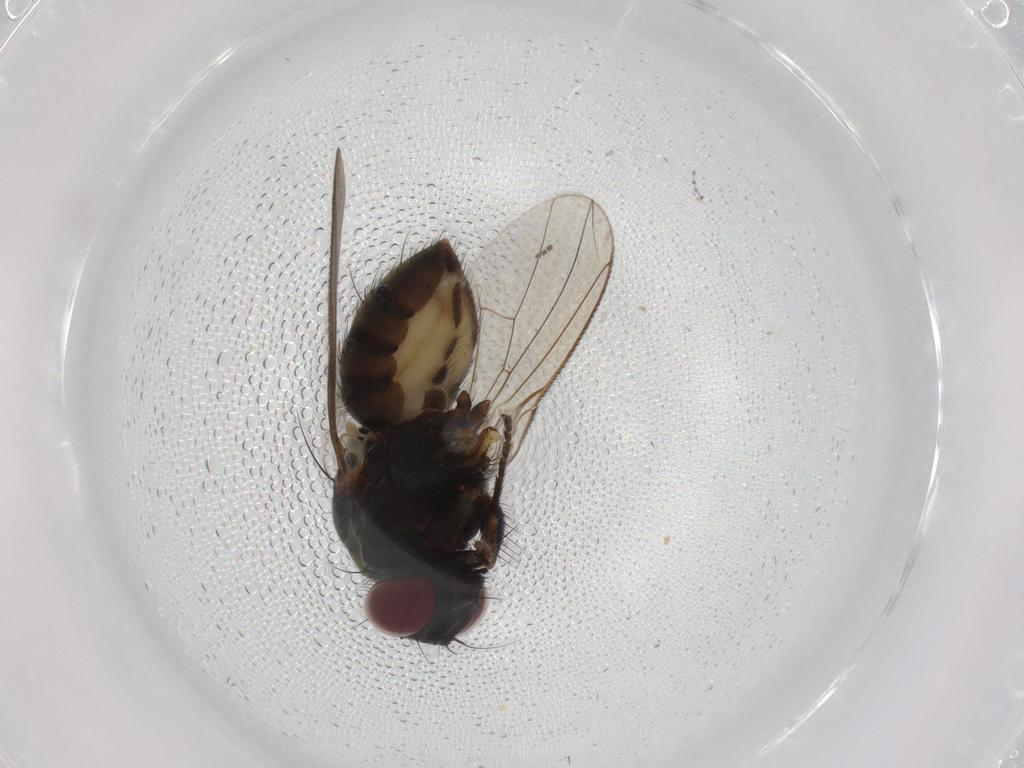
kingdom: Animalia
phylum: Arthropoda
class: Insecta
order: Diptera
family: Muscidae
